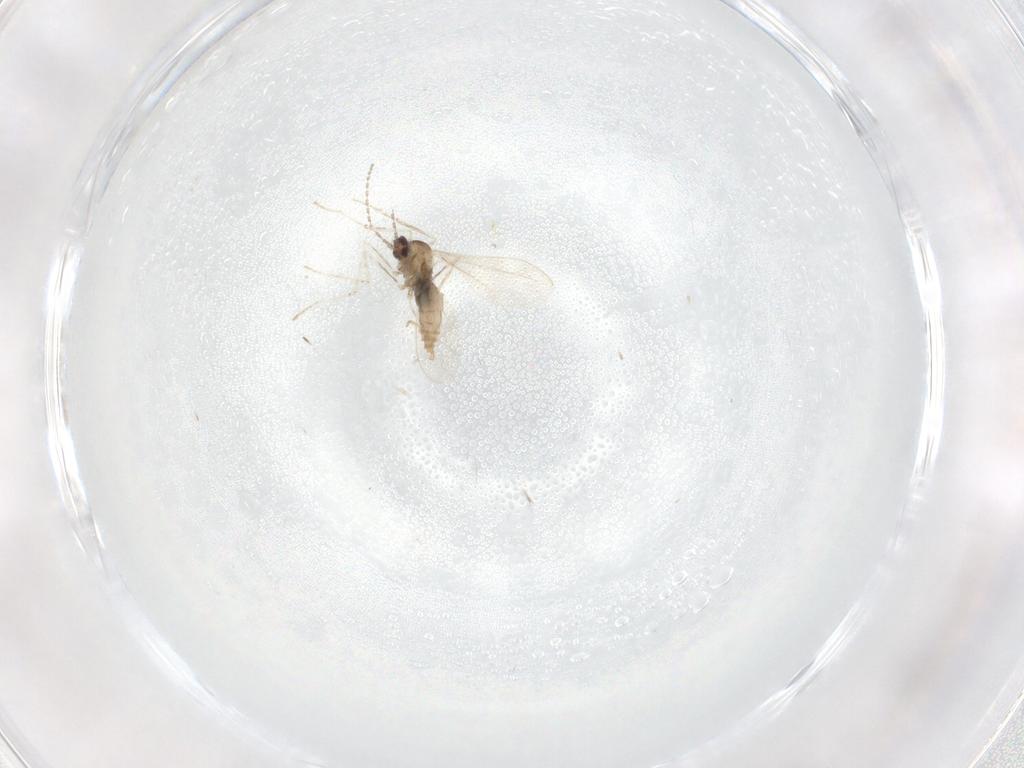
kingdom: Animalia
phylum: Arthropoda
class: Insecta
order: Diptera
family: Cecidomyiidae
